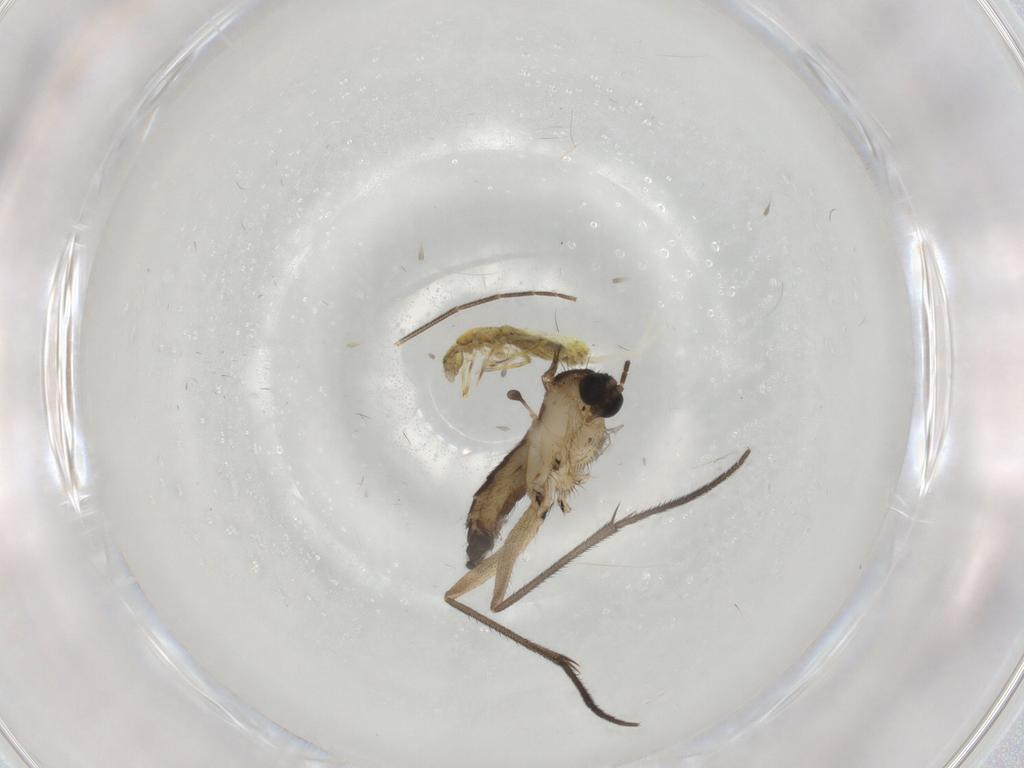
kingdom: Animalia
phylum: Arthropoda
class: Insecta
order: Diptera
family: Sciaridae
